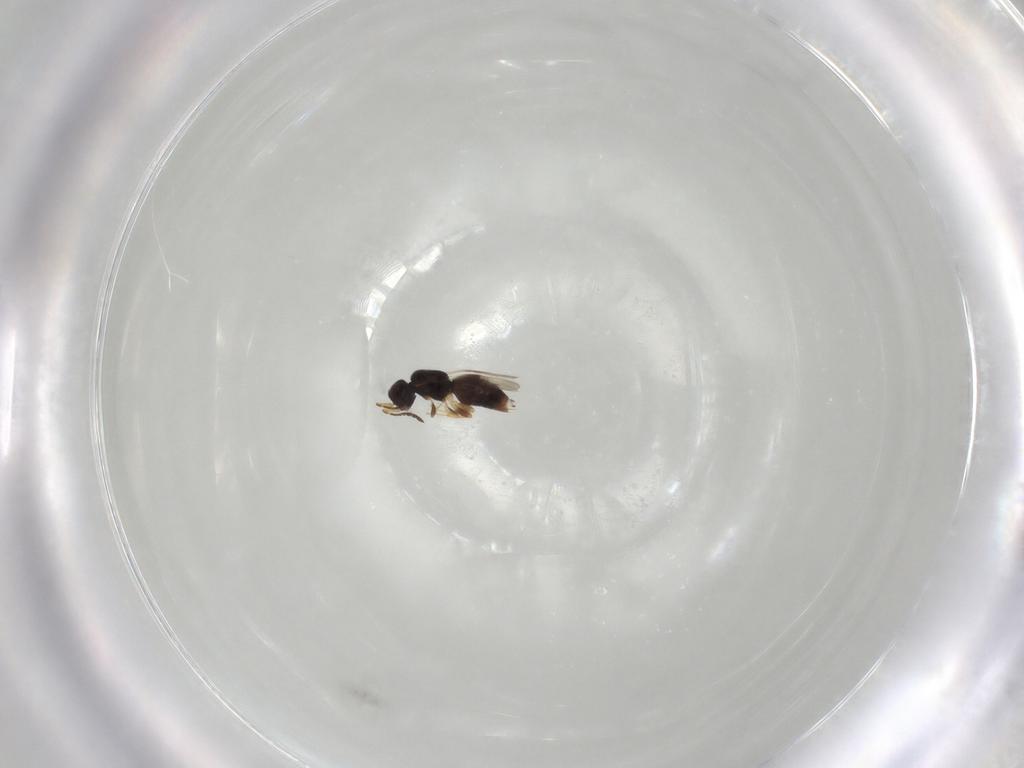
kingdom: Animalia
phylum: Arthropoda
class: Insecta
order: Hymenoptera
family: Ceraphronidae
